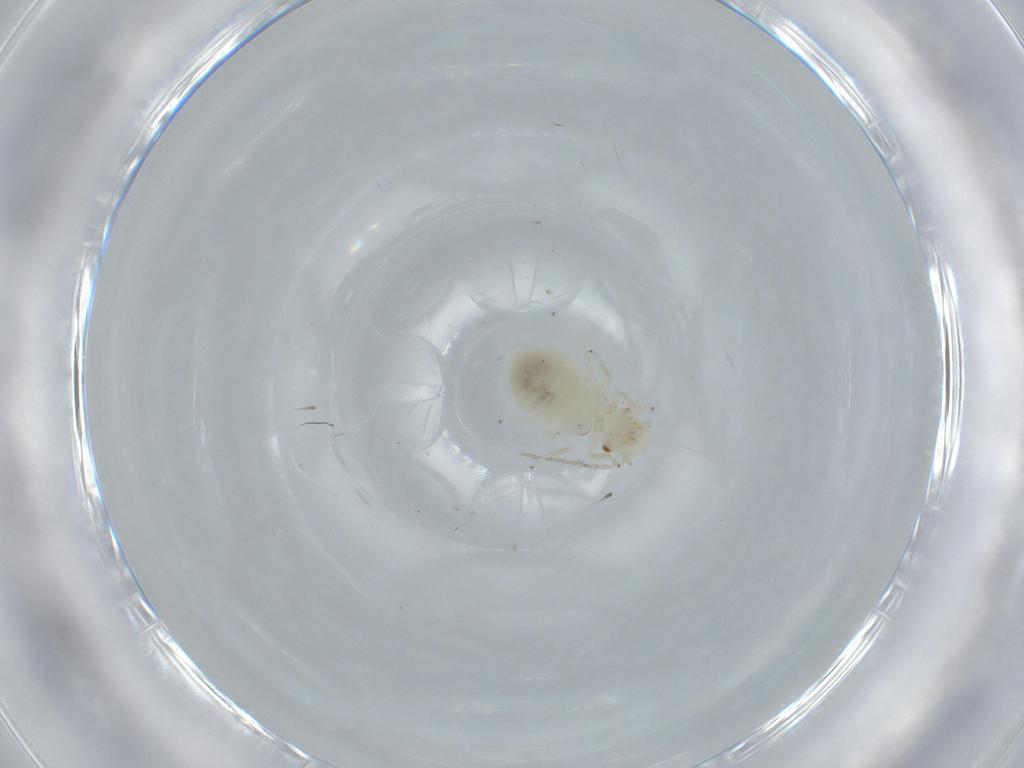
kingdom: Animalia
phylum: Arthropoda
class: Insecta
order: Psocodea
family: Caeciliusidae
